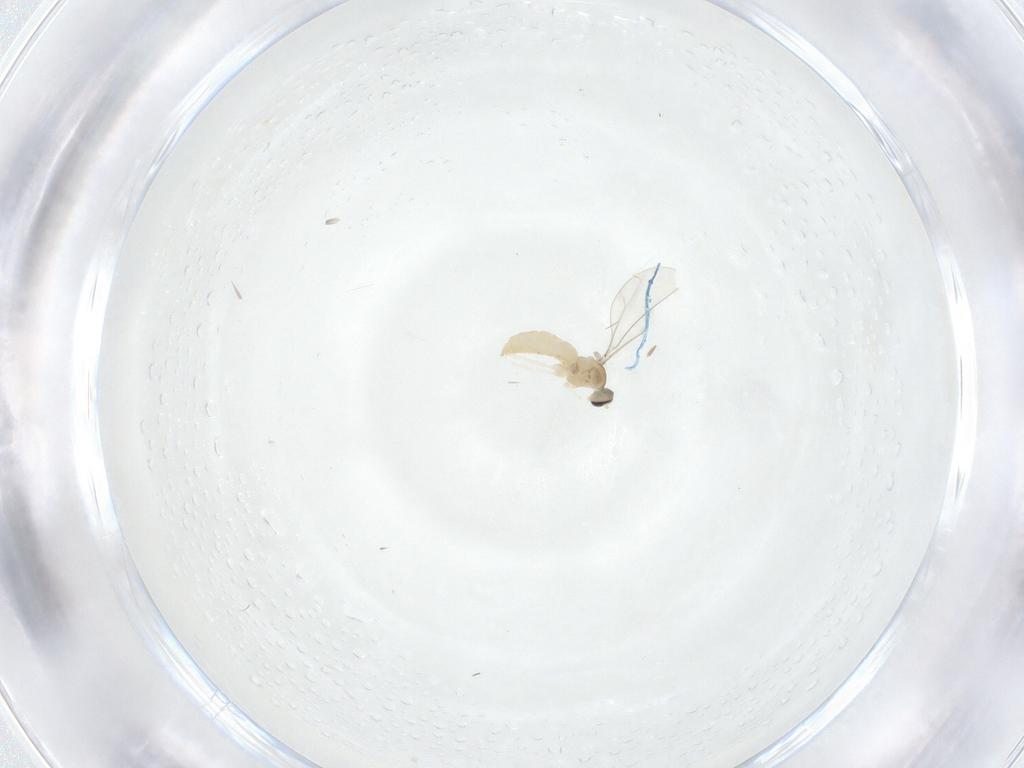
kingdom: Animalia
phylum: Arthropoda
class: Insecta
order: Diptera
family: Cecidomyiidae
